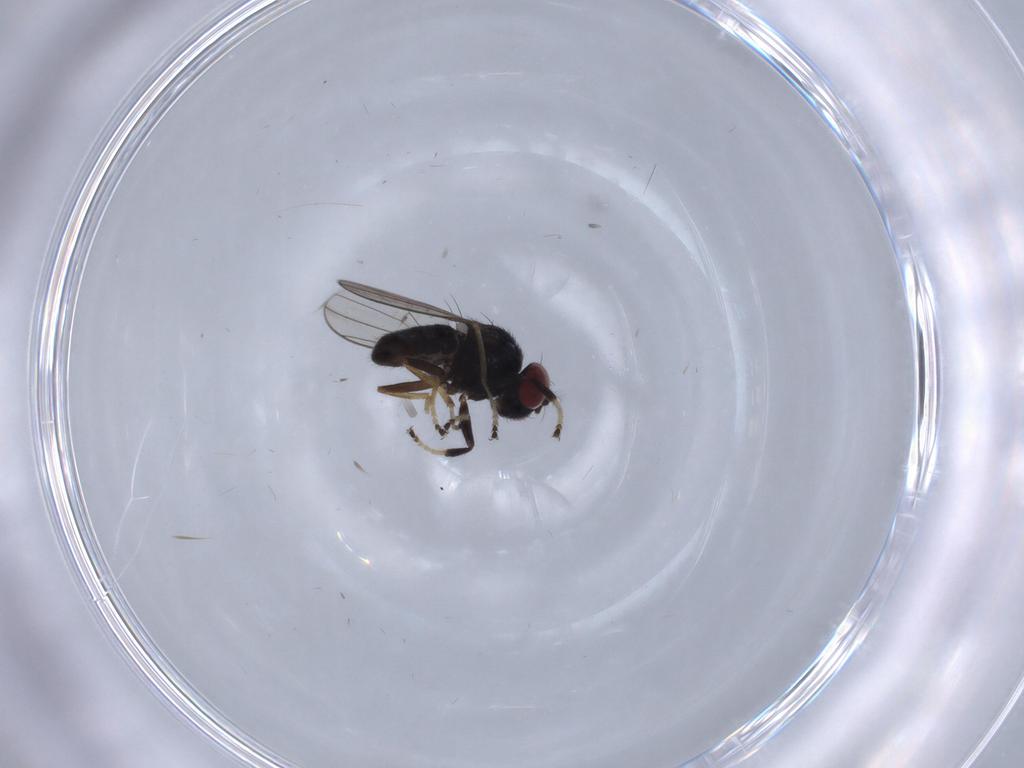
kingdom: Animalia
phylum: Arthropoda
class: Insecta
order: Diptera
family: Ephydridae
